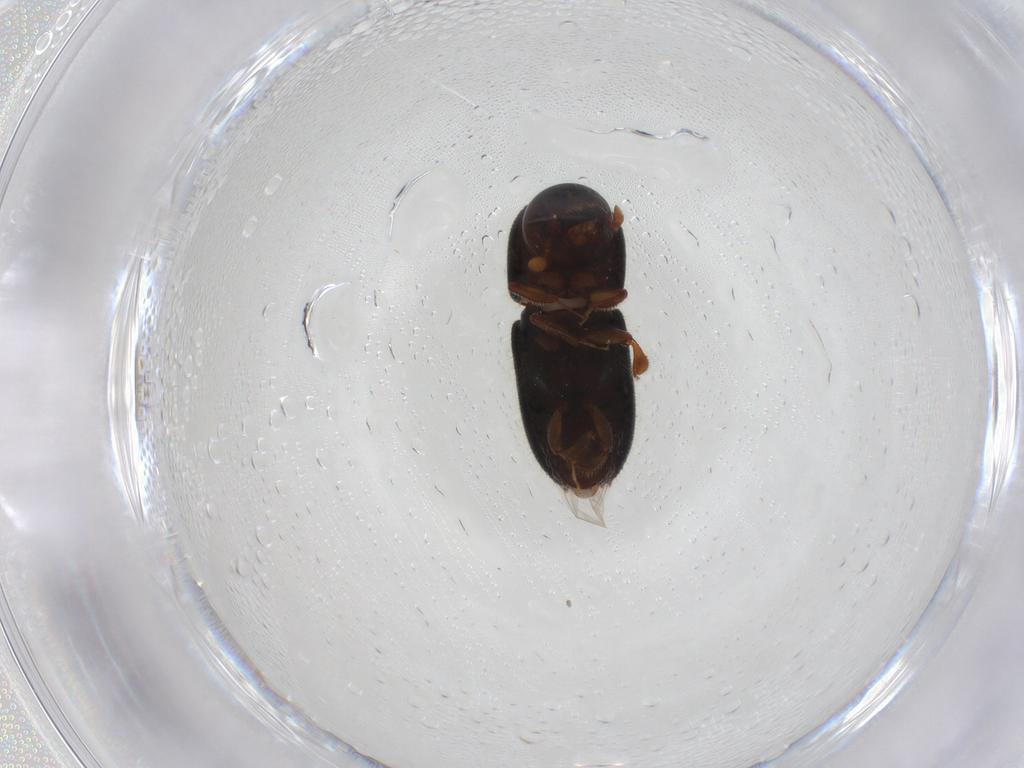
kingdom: Animalia
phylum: Arthropoda
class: Insecta
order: Coleoptera
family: Curculionidae
